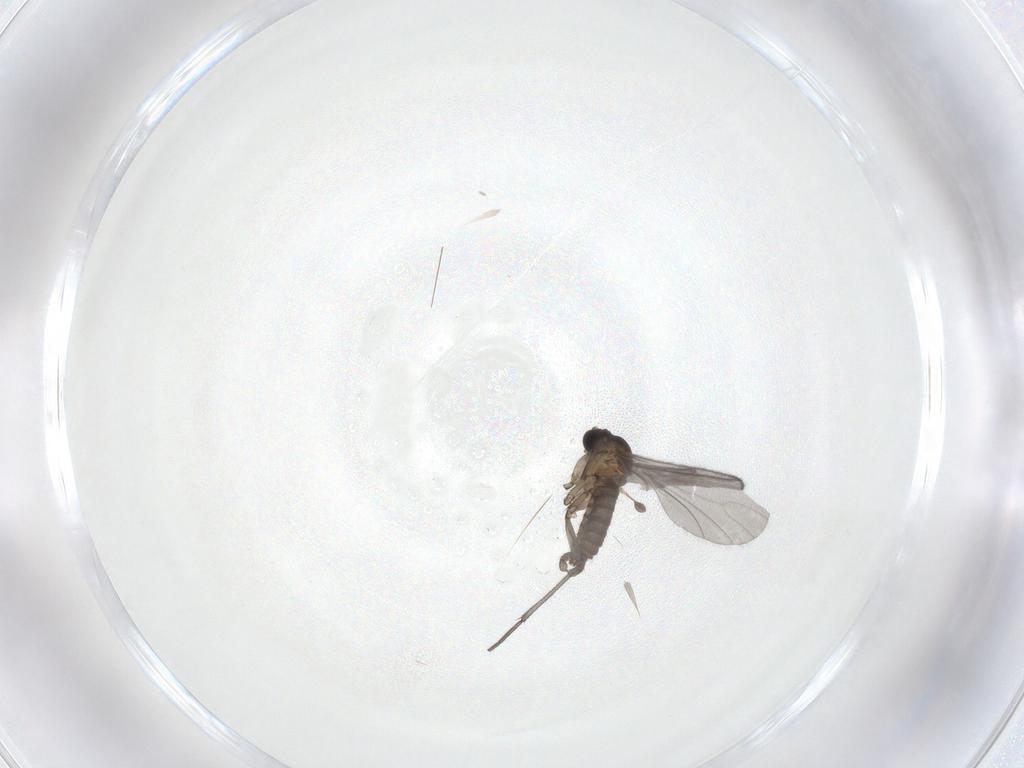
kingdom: Animalia
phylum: Arthropoda
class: Insecta
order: Diptera
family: Sciaridae
